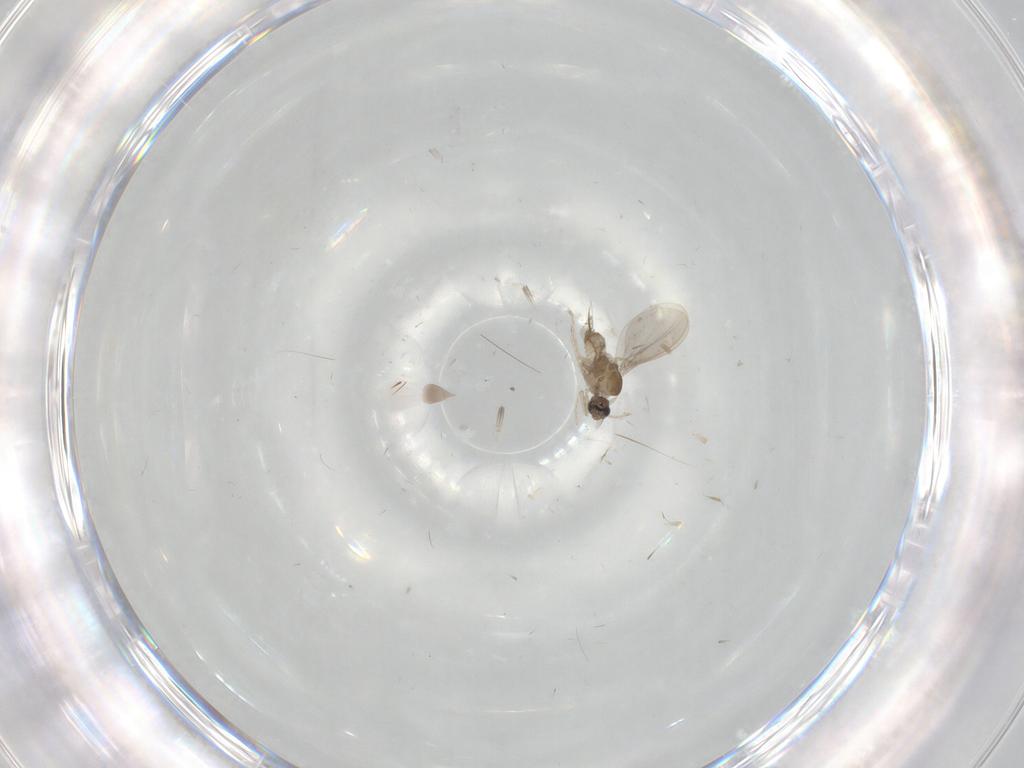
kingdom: Animalia
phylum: Arthropoda
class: Insecta
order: Diptera
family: Cecidomyiidae
